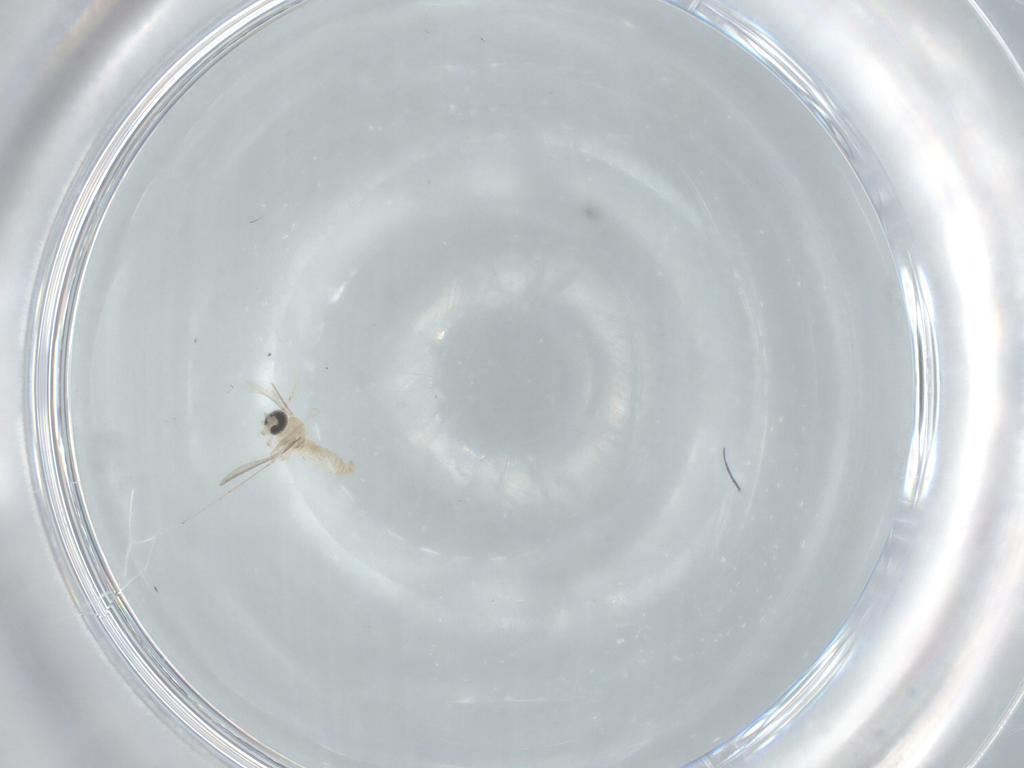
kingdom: Animalia
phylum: Arthropoda
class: Insecta
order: Diptera
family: Cecidomyiidae
